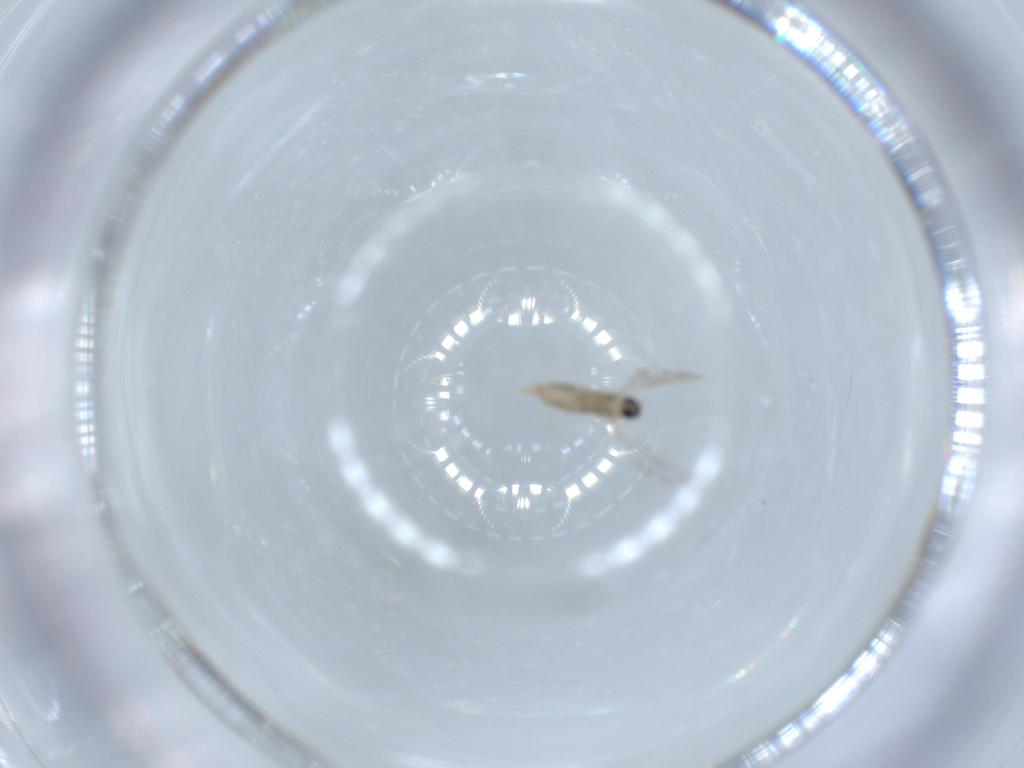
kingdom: Animalia
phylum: Arthropoda
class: Insecta
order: Diptera
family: Cecidomyiidae
